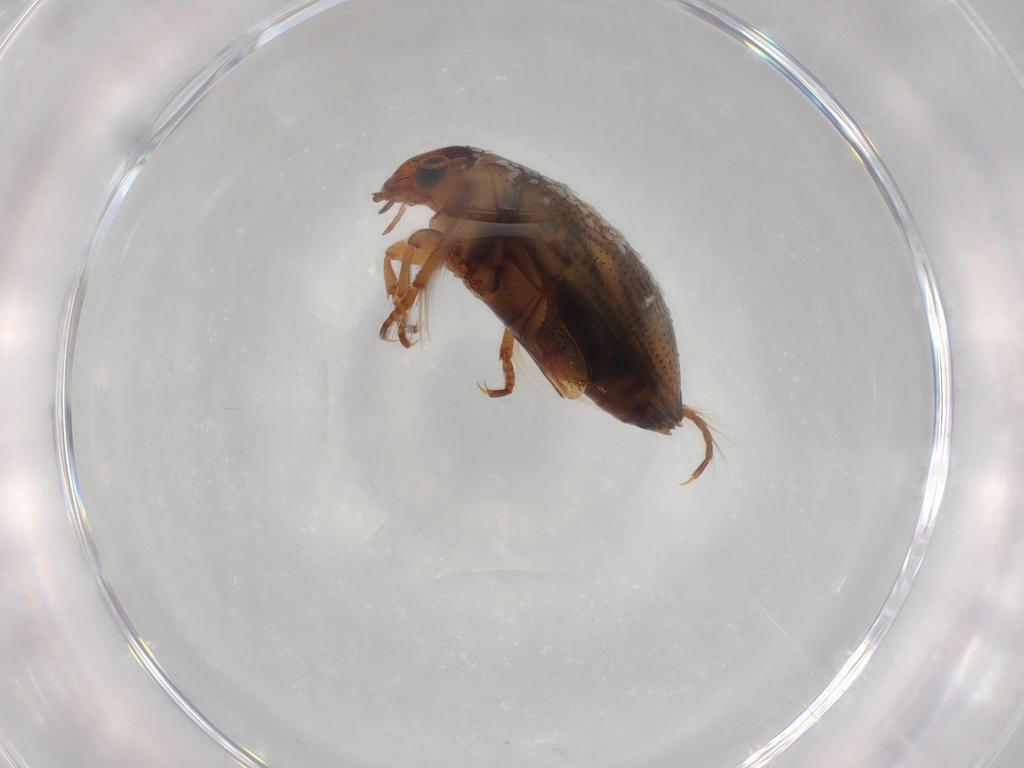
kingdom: Animalia
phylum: Arthropoda
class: Insecta
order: Coleoptera
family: Haliplidae
